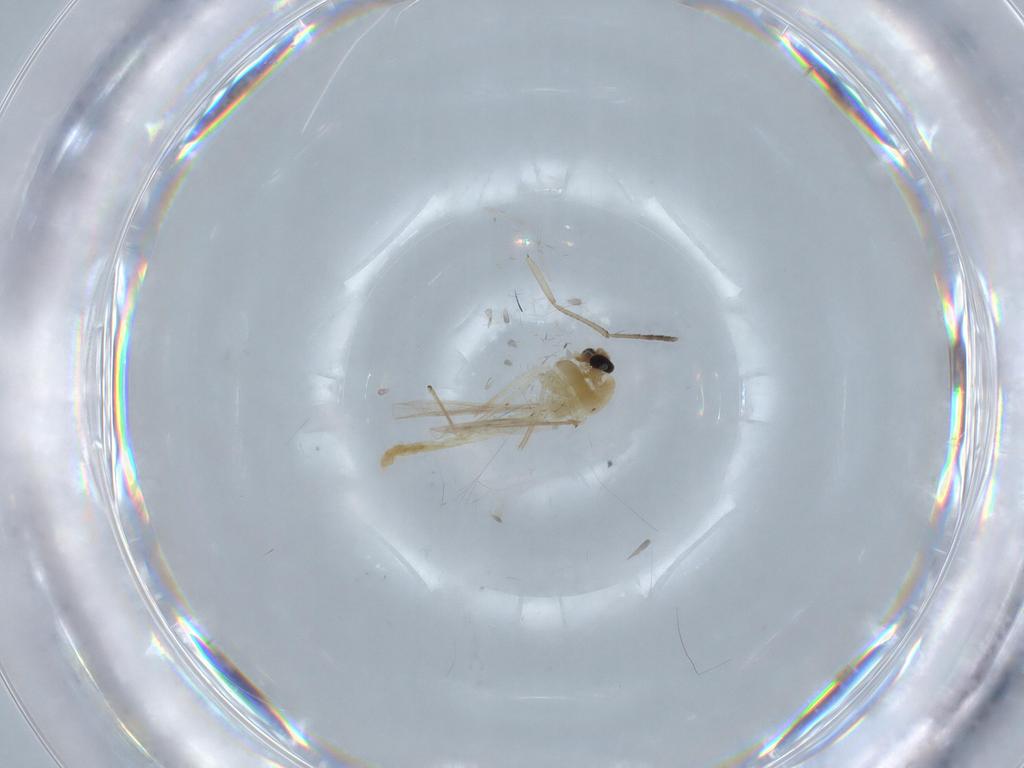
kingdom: Animalia
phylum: Arthropoda
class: Insecta
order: Diptera
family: Chironomidae
